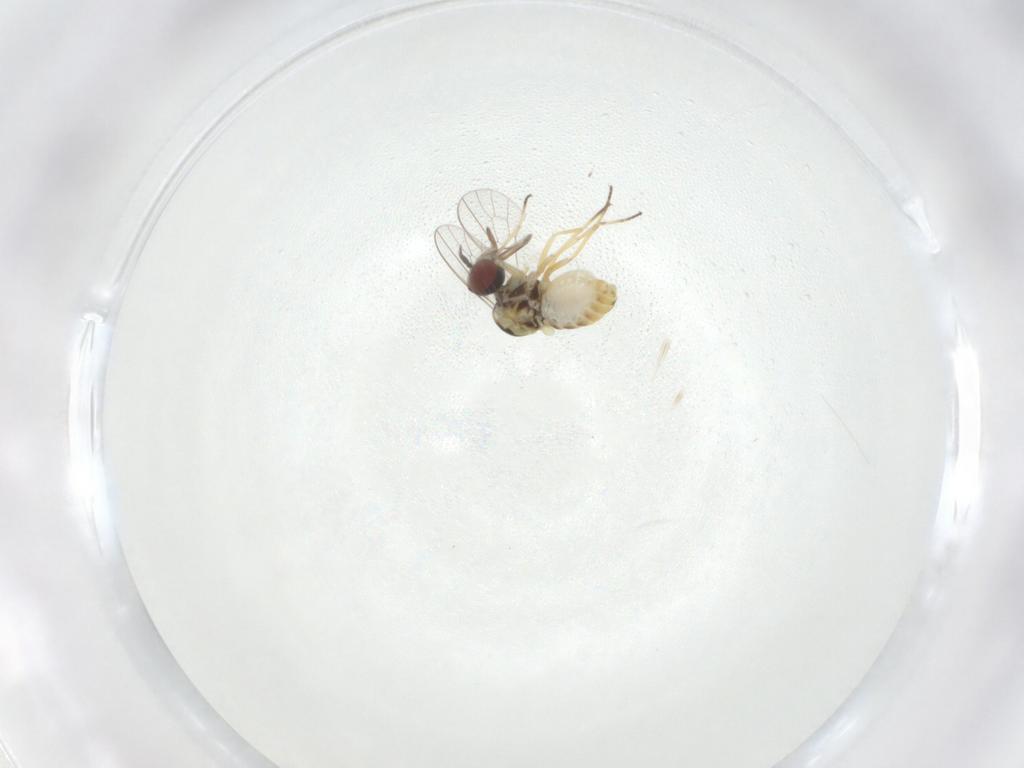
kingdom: Animalia
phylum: Arthropoda
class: Insecta
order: Diptera
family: Mythicomyiidae
